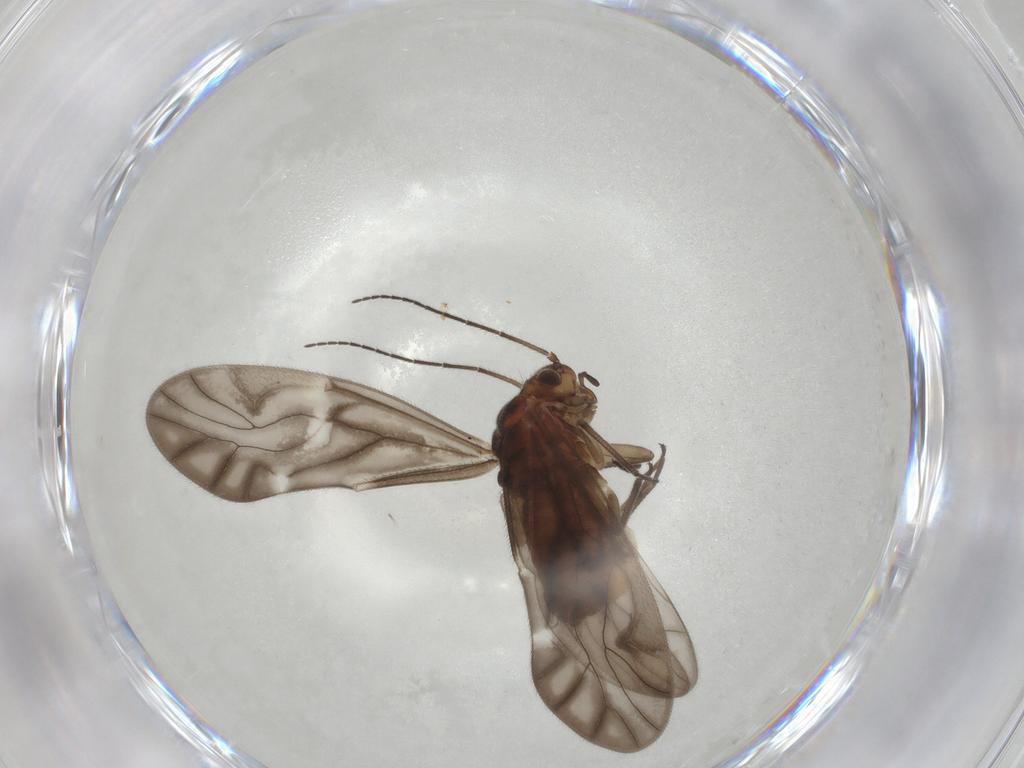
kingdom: Animalia
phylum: Arthropoda
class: Insecta
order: Psocodea
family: Caeciliusidae
